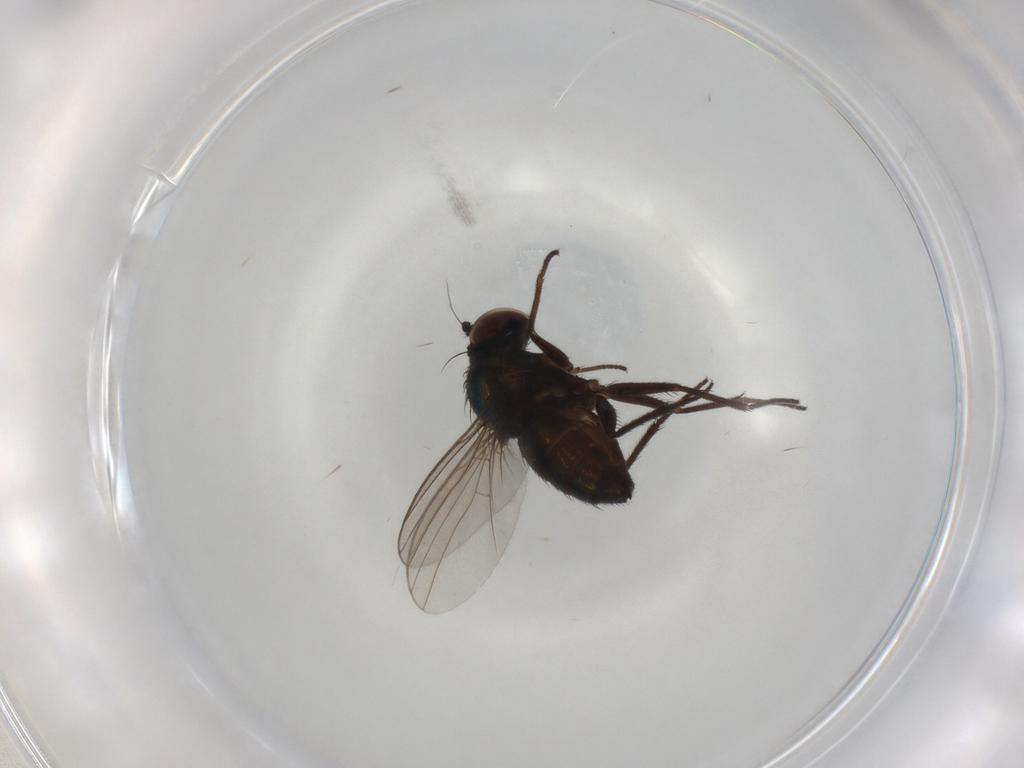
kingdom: Animalia
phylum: Arthropoda
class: Insecta
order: Diptera
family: Dolichopodidae
